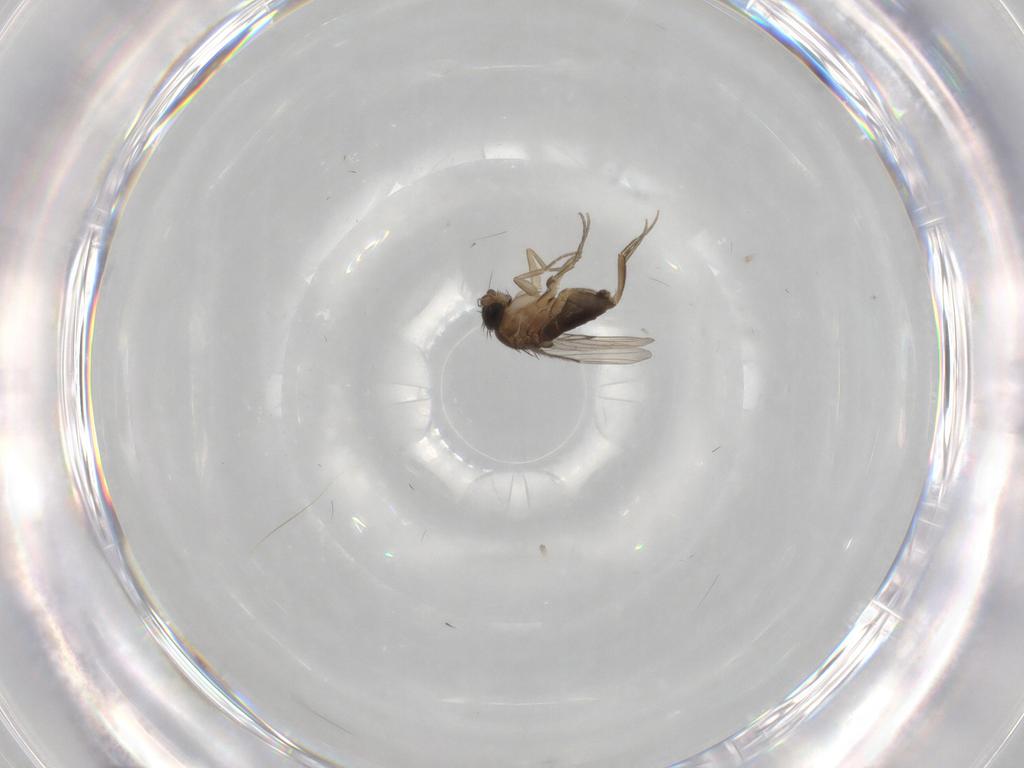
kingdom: Animalia
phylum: Arthropoda
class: Insecta
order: Diptera
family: Phoridae
